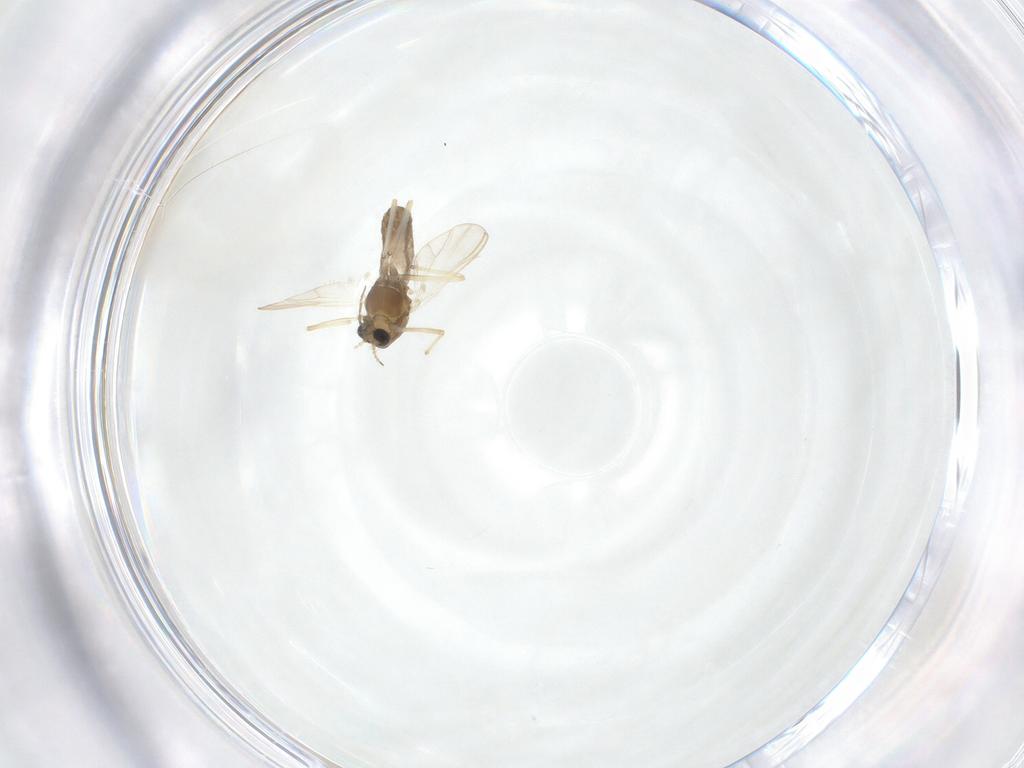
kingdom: Animalia
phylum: Arthropoda
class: Insecta
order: Diptera
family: Chironomidae
